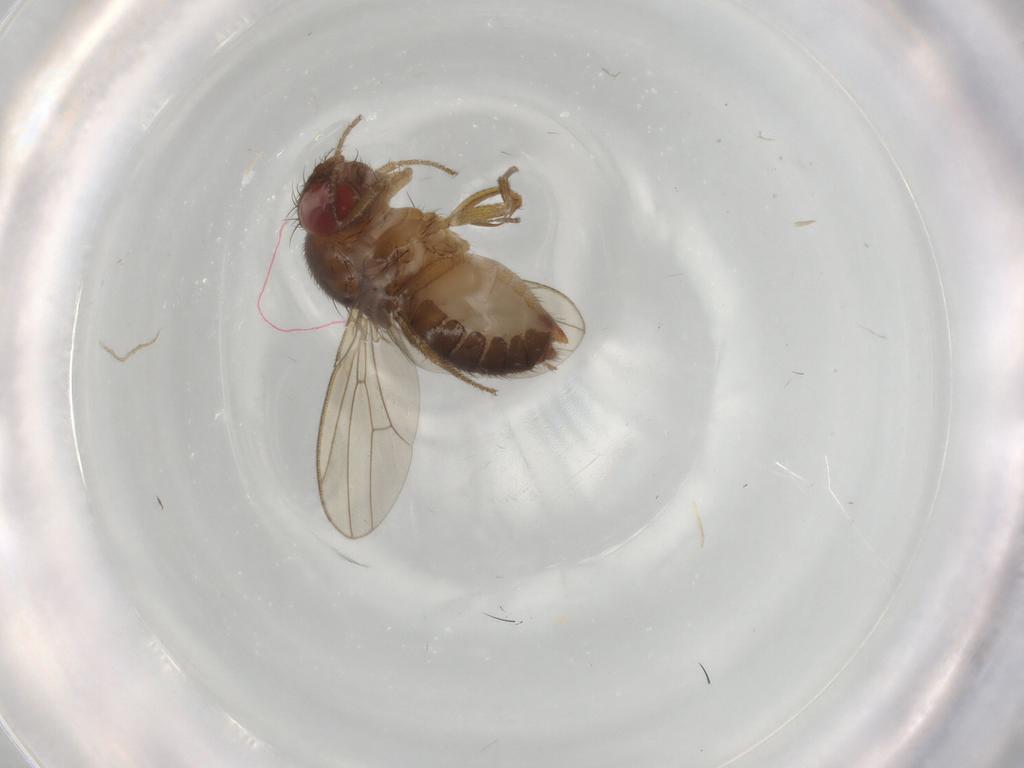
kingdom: Animalia
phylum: Arthropoda
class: Insecta
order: Diptera
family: Drosophilidae
